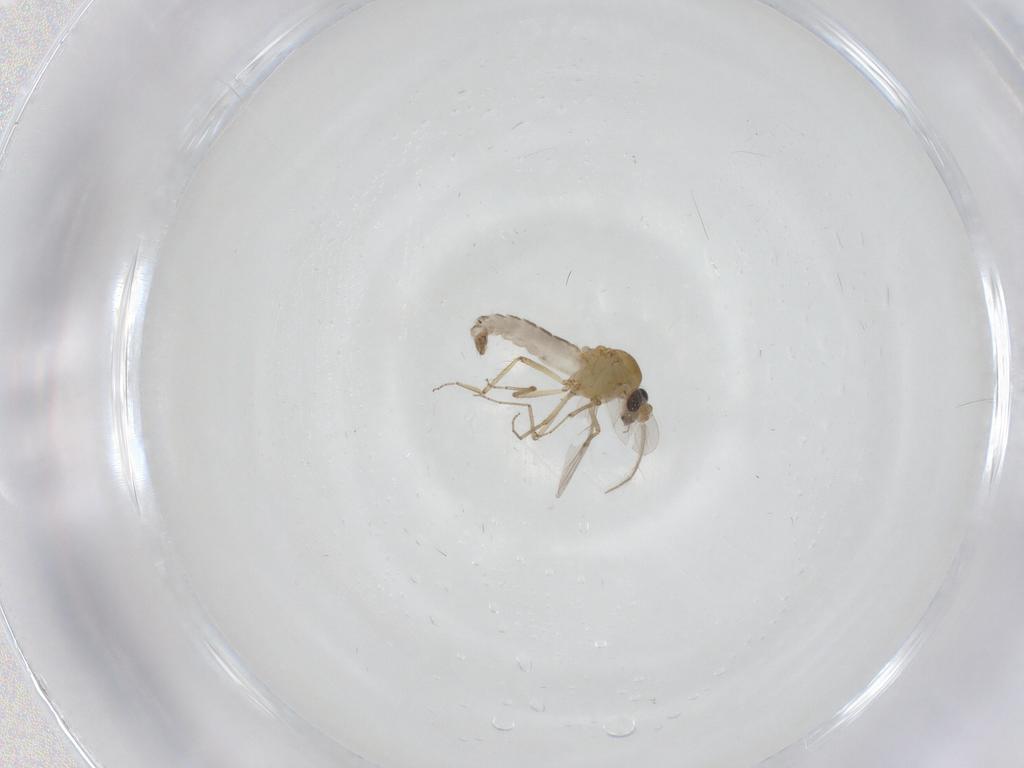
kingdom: Animalia
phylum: Arthropoda
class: Insecta
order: Diptera
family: Ceratopogonidae
